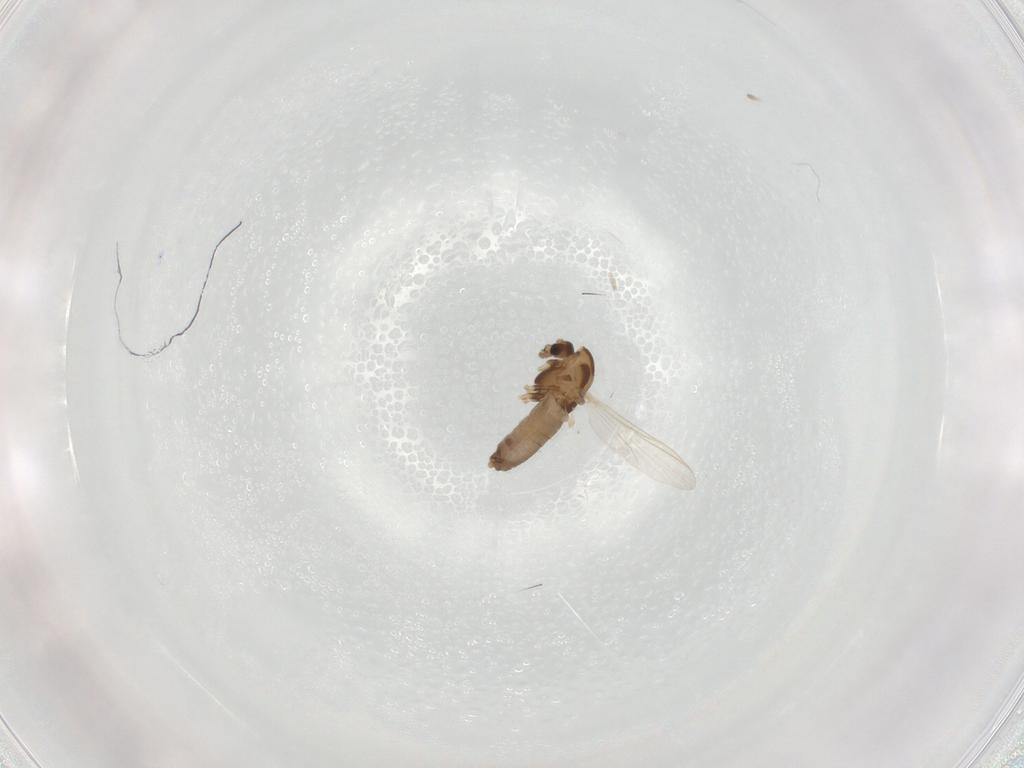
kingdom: Animalia
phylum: Arthropoda
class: Insecta
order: Diptera
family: Chironomidae
